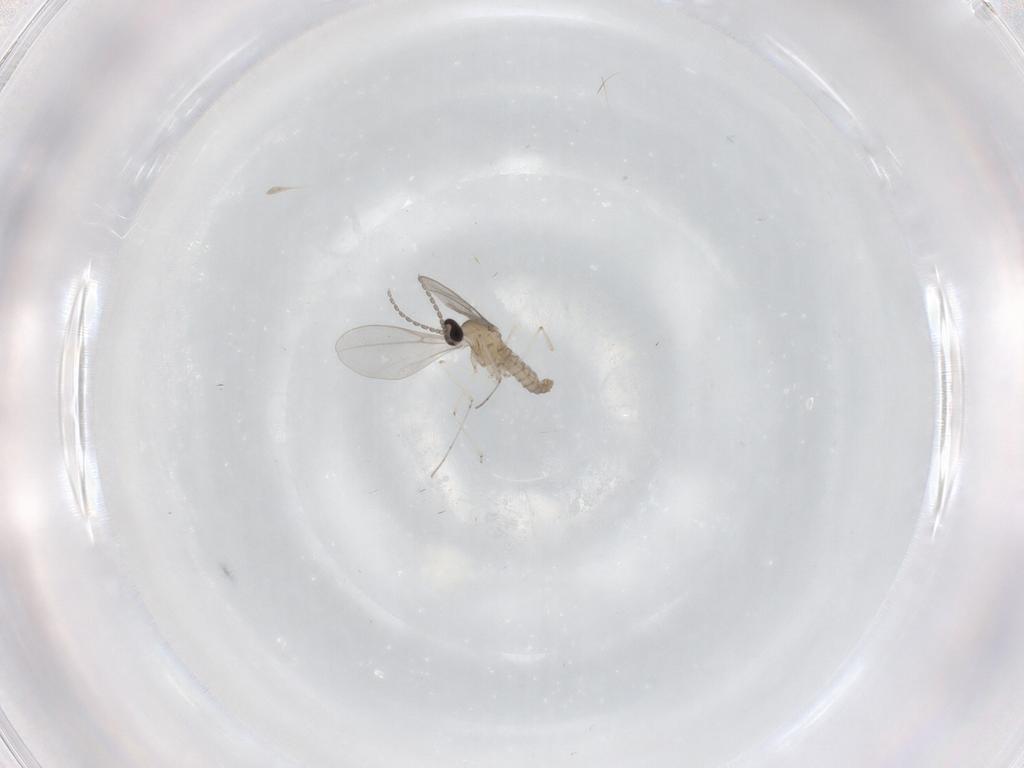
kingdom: Animalia
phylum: Arthropoda
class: Insecta
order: Diptera
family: Cecidomyiidae
